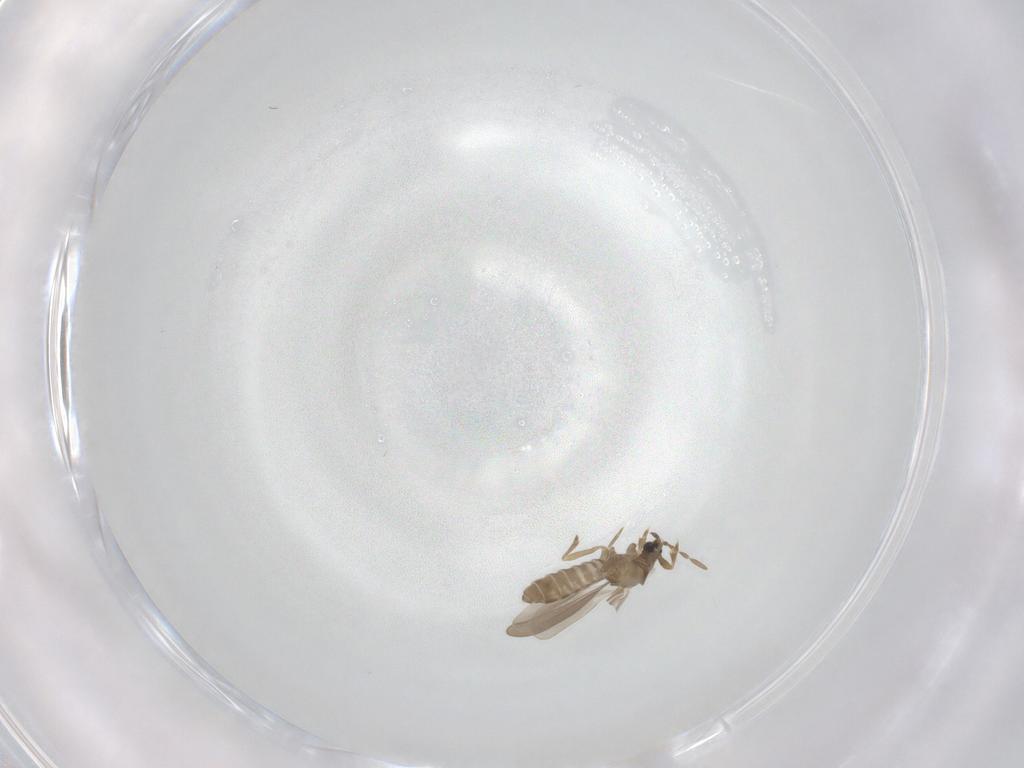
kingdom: Animalia
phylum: Arthropoda
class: Insecta
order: Hemiptera
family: Enicocephalidae
